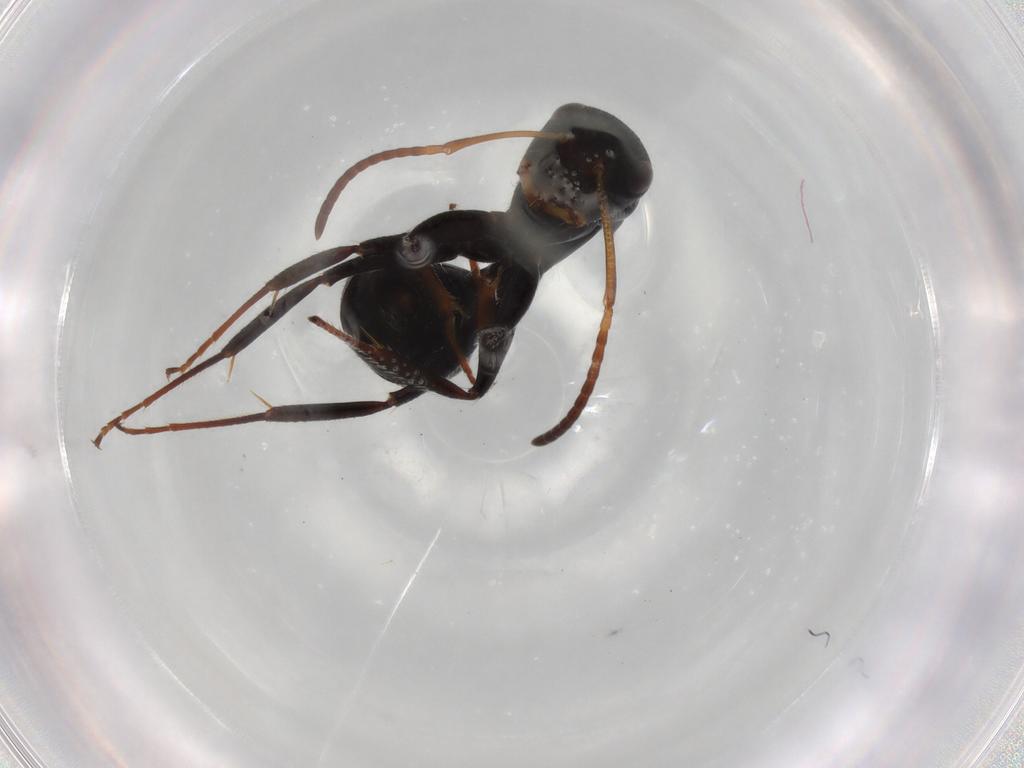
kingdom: Animalia
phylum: Arthropoda
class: Insecta
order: Hymenoptera
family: Formicidae
